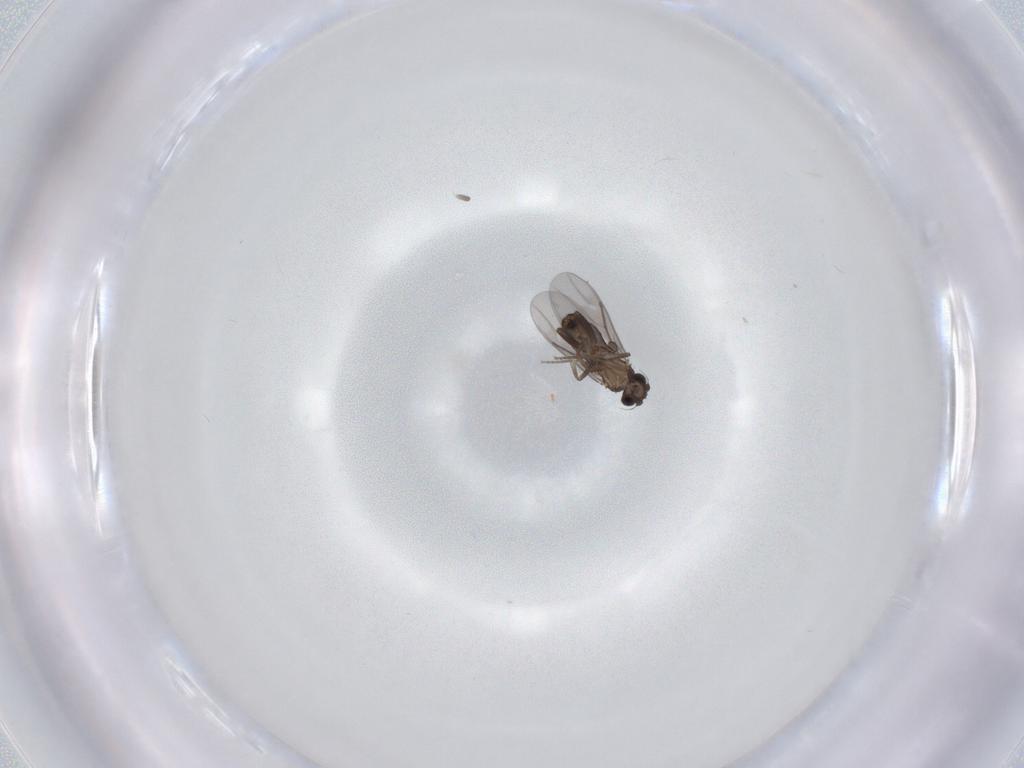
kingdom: Animalia
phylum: Arthropoda
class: Insecta
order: Diptera
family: Phoridae
